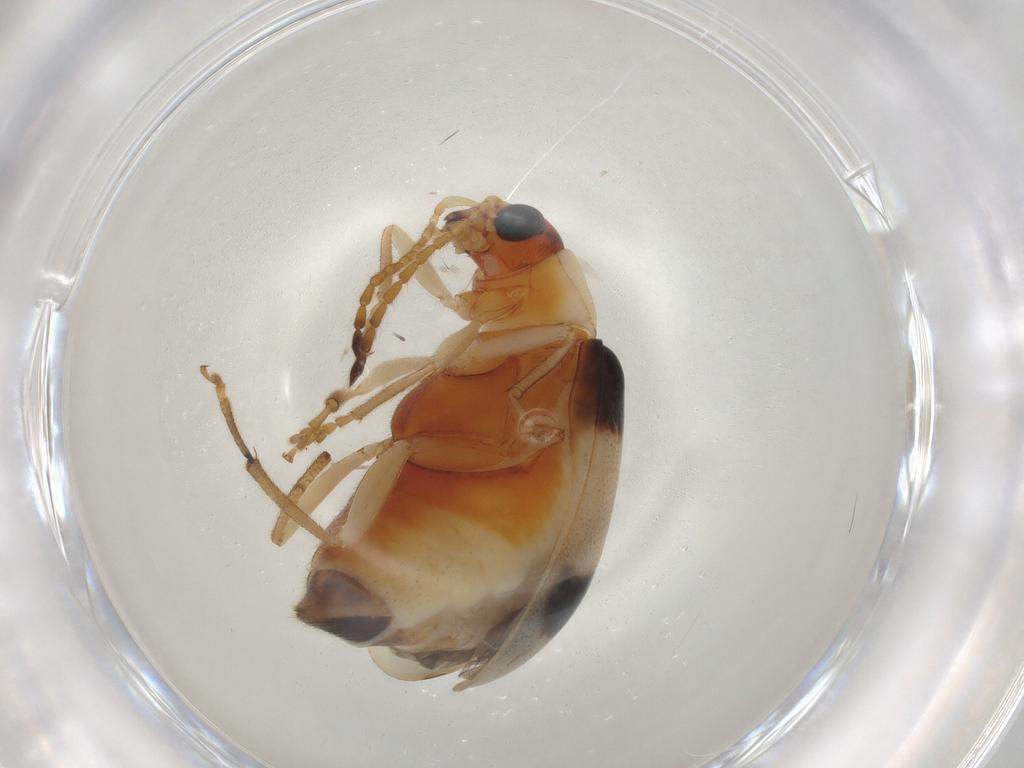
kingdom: Animalia
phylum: Arthropoda
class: Insecta
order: Coleoptera
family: Chrysomelidae
